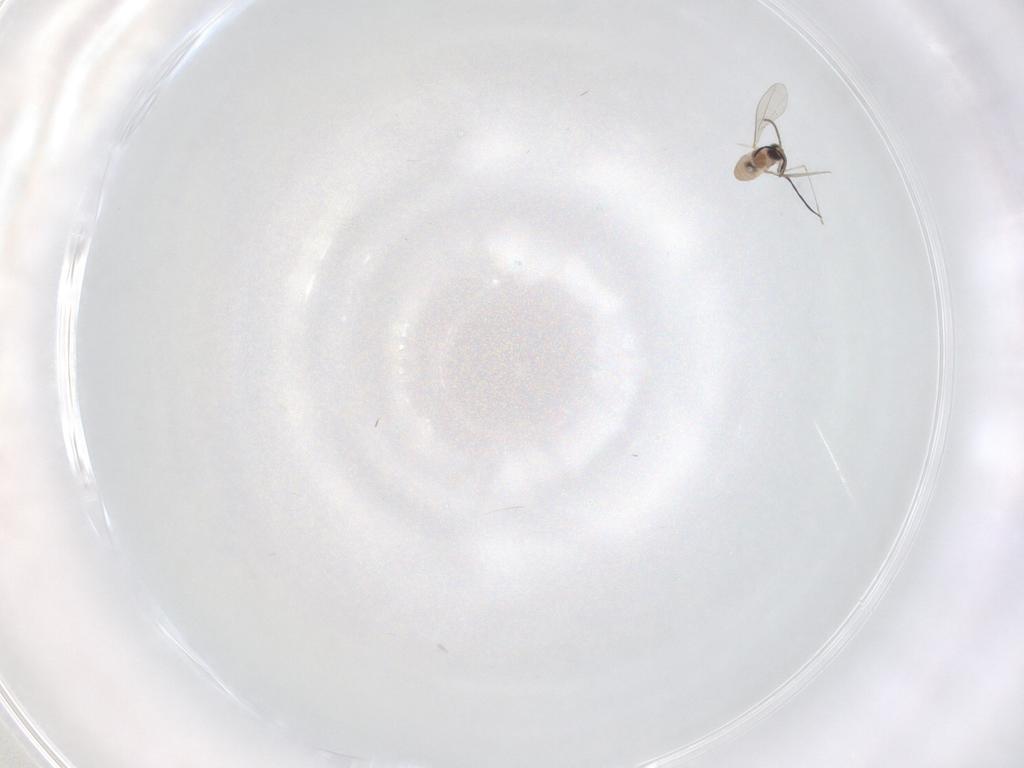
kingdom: Animalia
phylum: Arthropoda
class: Insecta
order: Diptera
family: Cecidomyiidae
